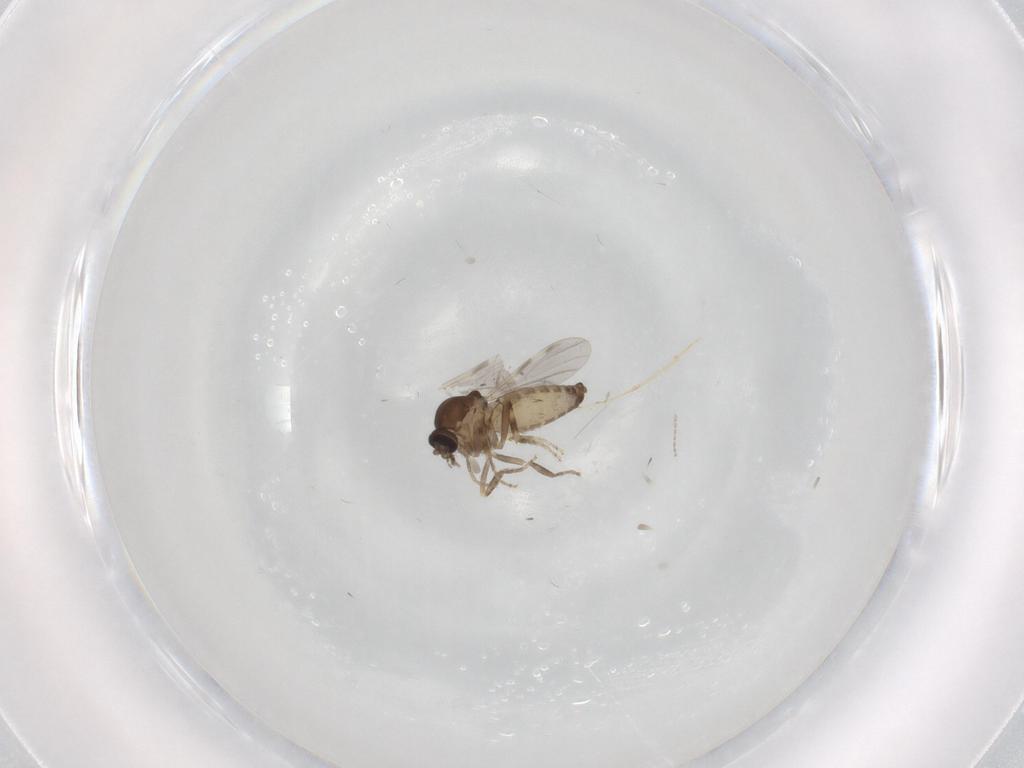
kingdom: Animalia
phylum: Arthropoda
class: Insecta
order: Diptera
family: Ceratopogonidae
